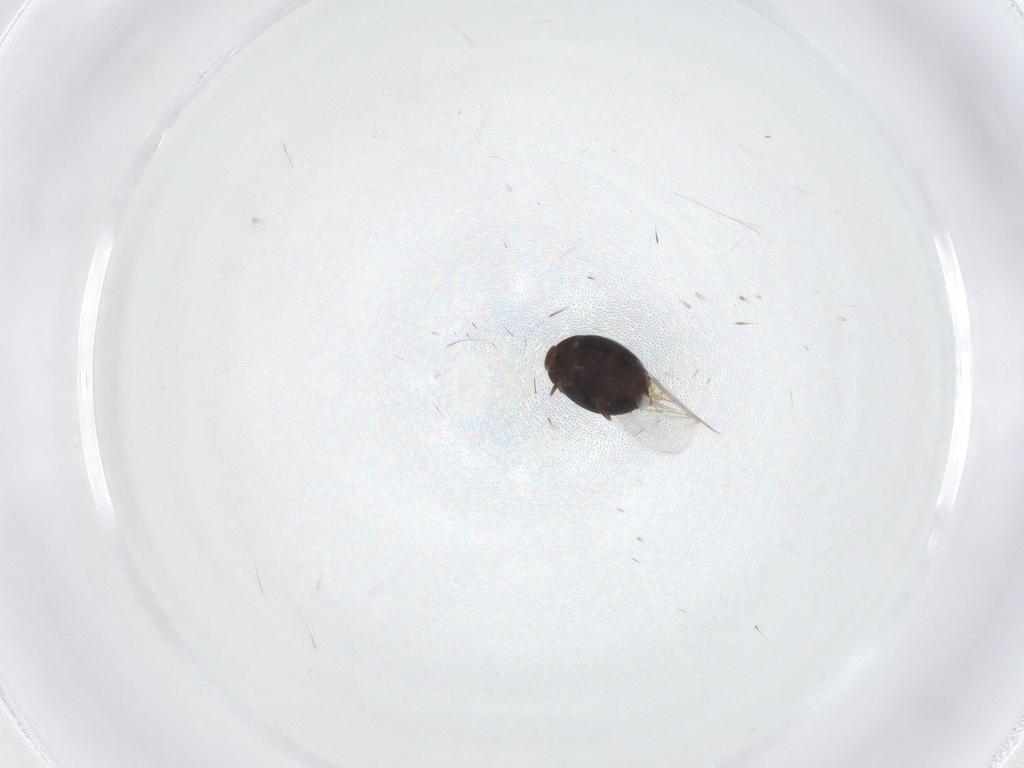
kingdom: Animalia
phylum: Arthropoda
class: Insecta
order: Coleoptera
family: Corylophidae
